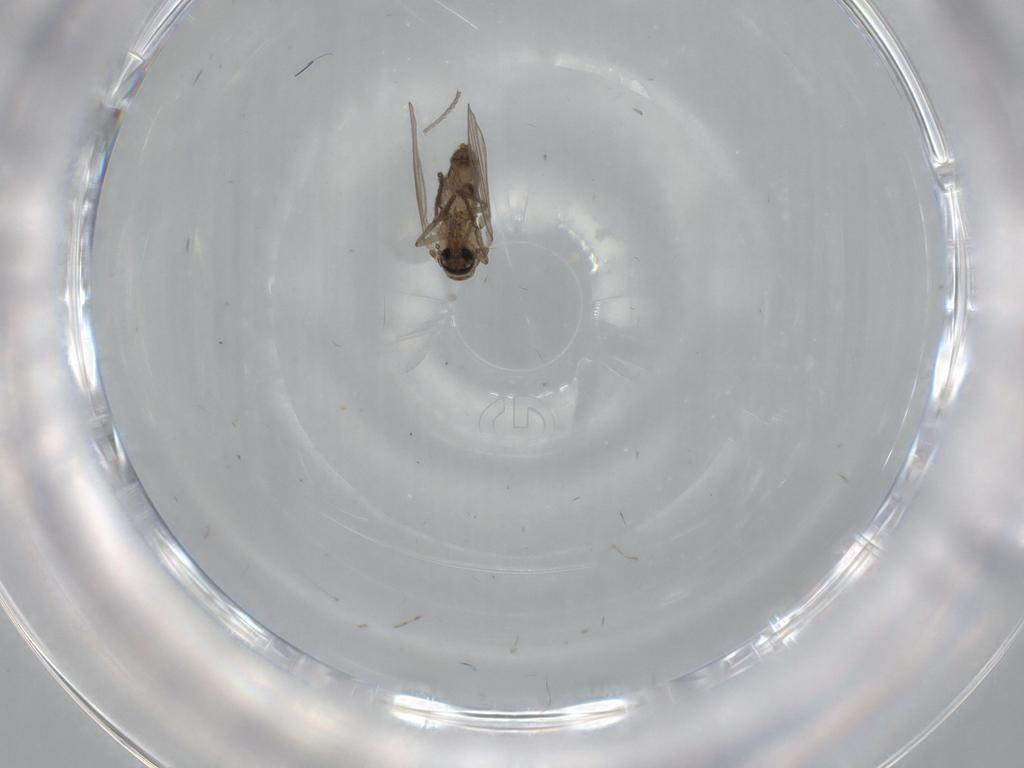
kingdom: Animalia
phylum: Arthropoda
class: Insecta
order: Diptera
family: Psychodidae
